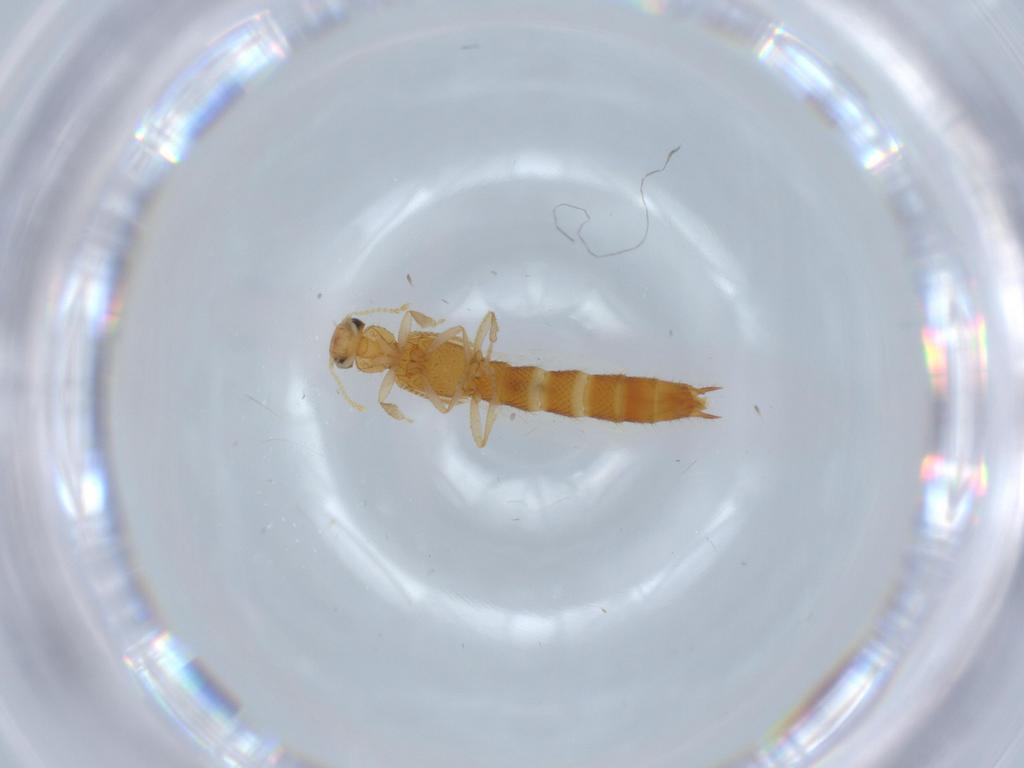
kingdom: Animalia
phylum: Arthropoda
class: Insecta
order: Coleoptera
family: Staphylinidae
